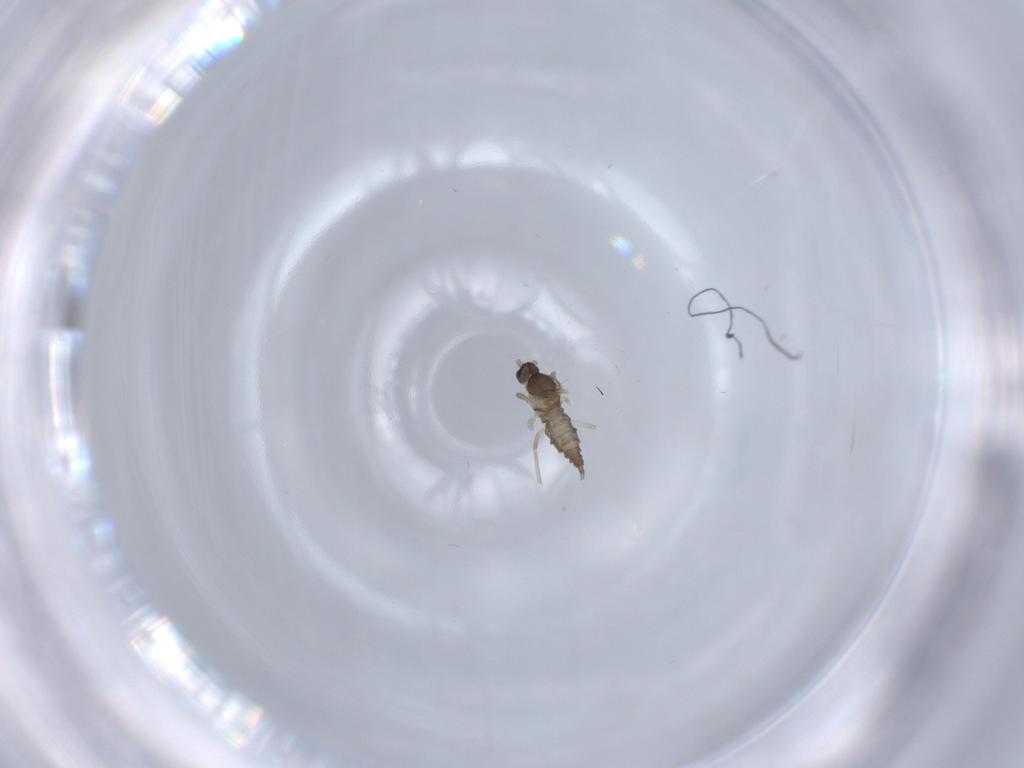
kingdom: Animalia
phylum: Arthropoda
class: Insecta
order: Diptera
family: Cecidomyiidae
